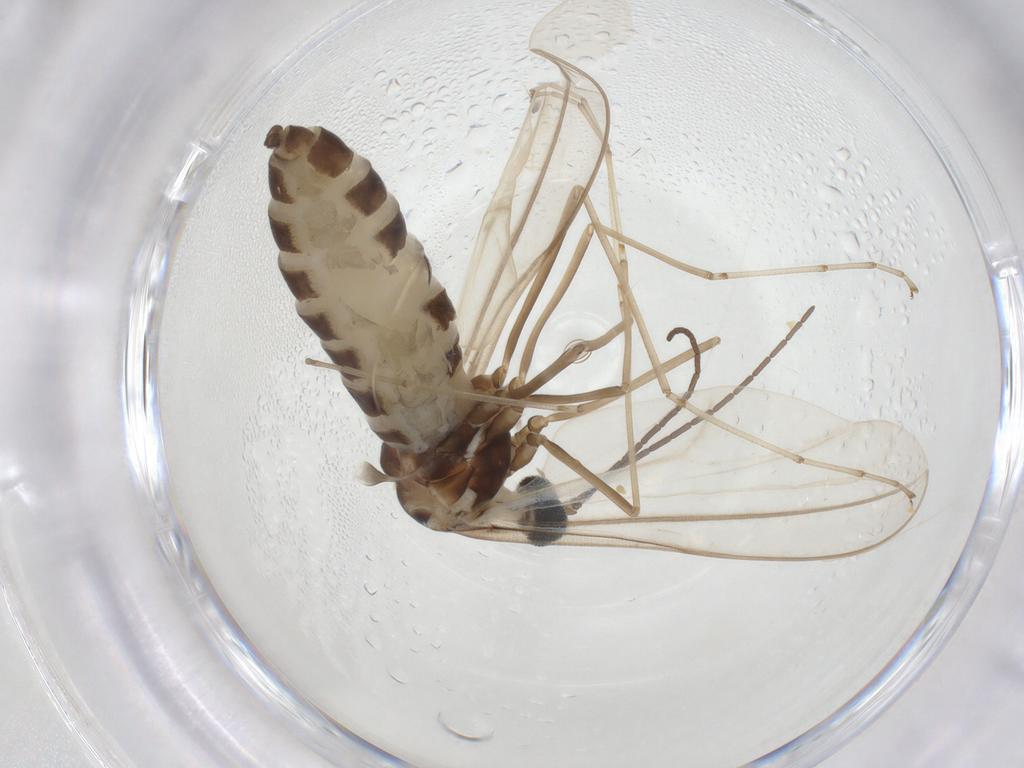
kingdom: Animalia
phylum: Arthropoda
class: Insecta
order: Diptera
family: Cecidomyiidae
